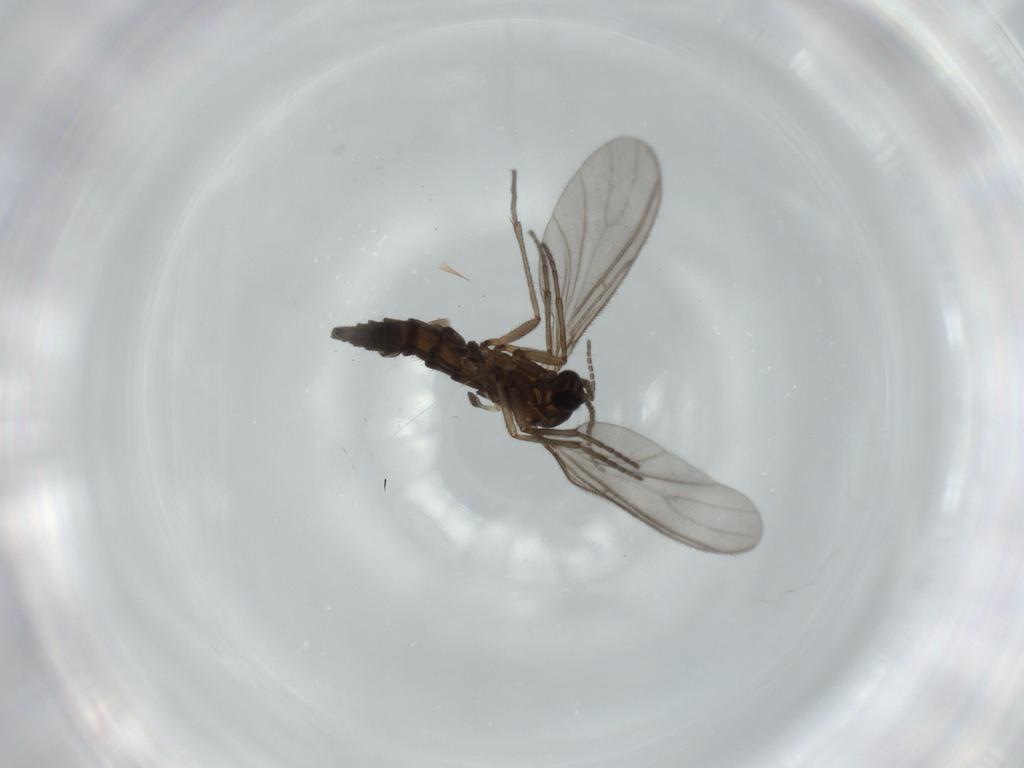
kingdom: Animalia
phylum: Arthropoda
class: Insecta
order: Diptera
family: Sciaridae
